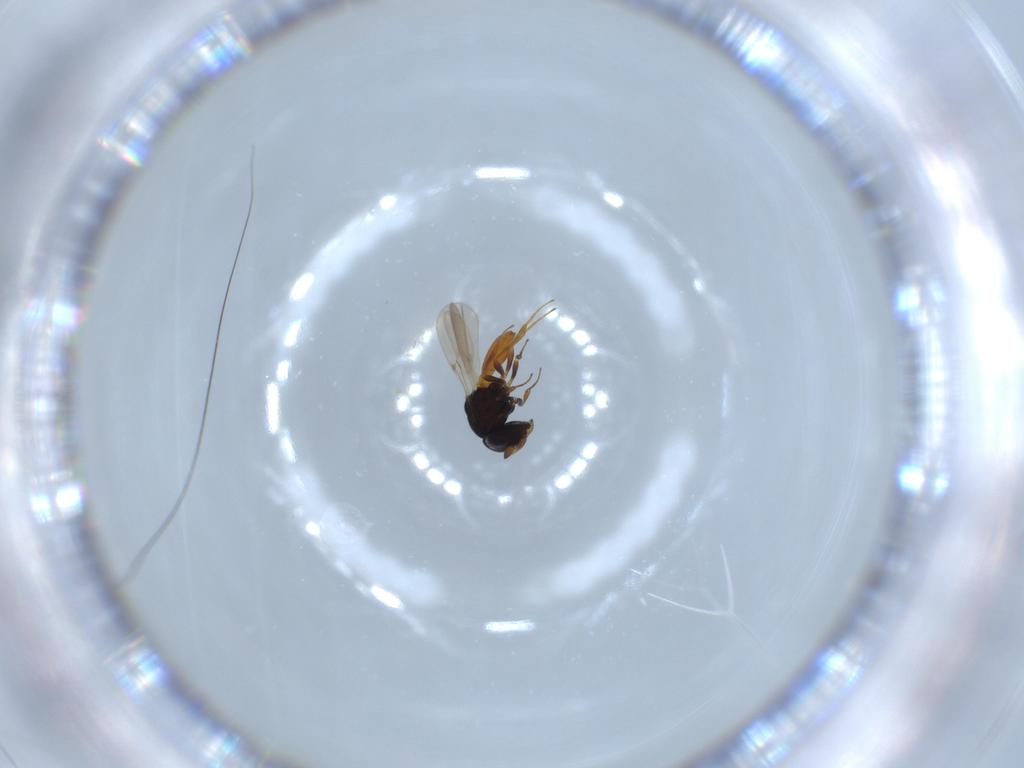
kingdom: Animalia
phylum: Arthropoda
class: Insecta
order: Hymenoptera
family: Scelionidae
